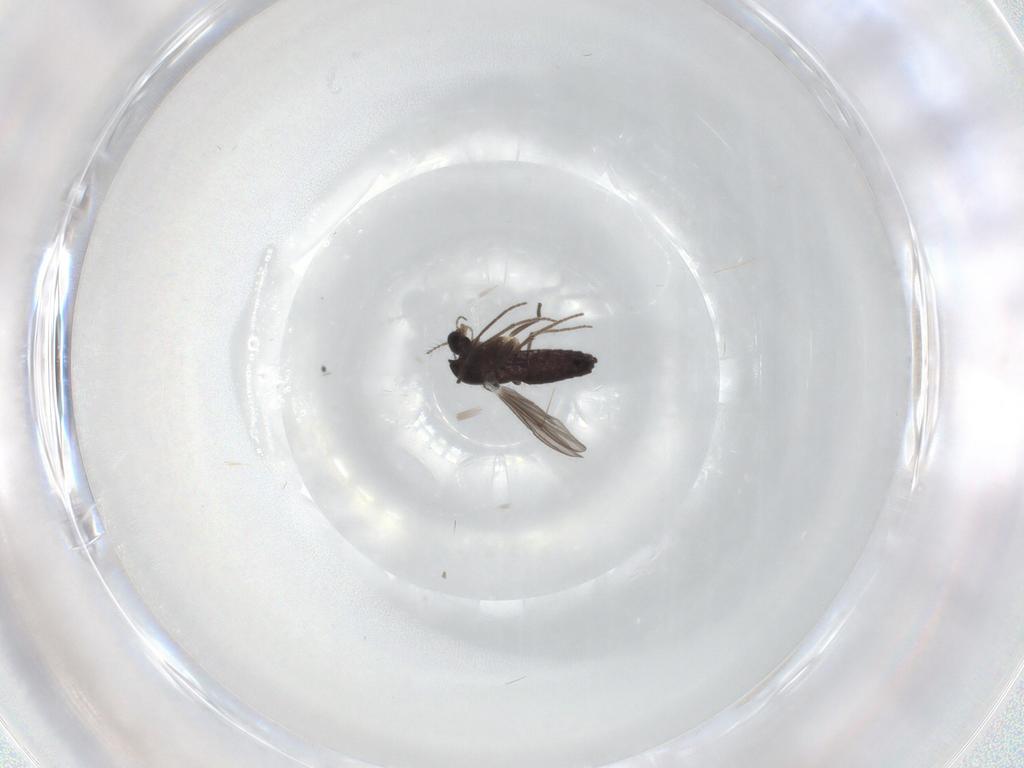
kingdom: Animalia
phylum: Arthropoda
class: Insecta
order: Diptera
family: Chironomidae
